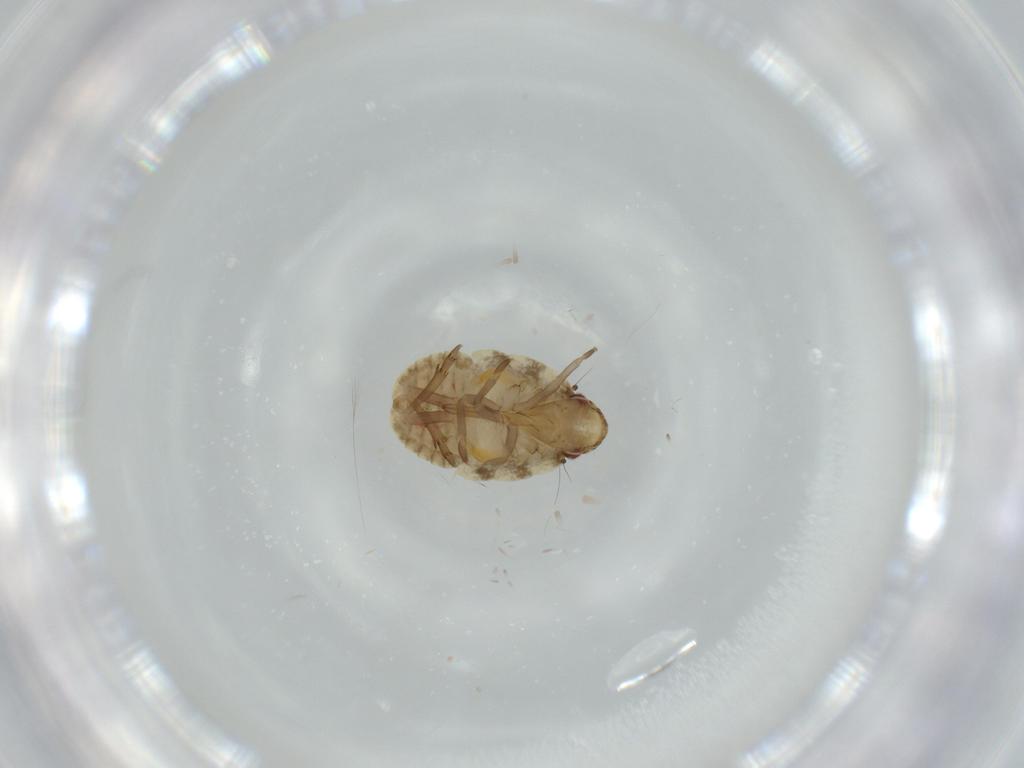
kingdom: Animalia
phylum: Arthropoda
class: Insecta
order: Hemiptera
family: Flatidae
